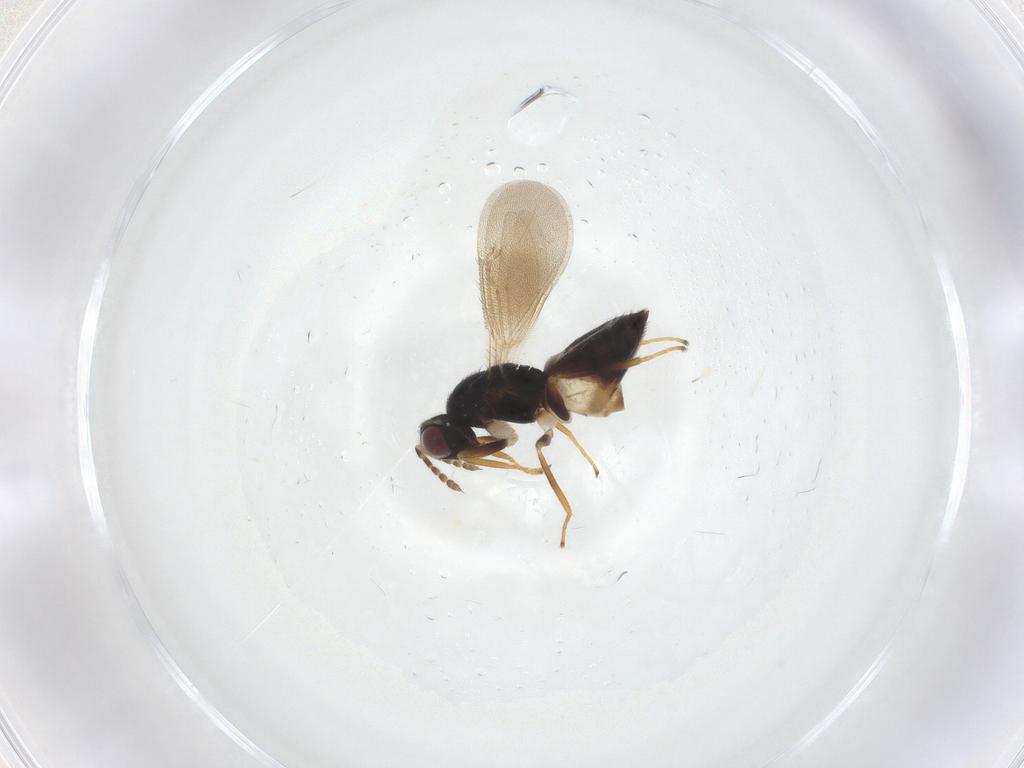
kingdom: Animalia
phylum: Arthropoda
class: Insecta
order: Hymenoptera
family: Eulophidae
